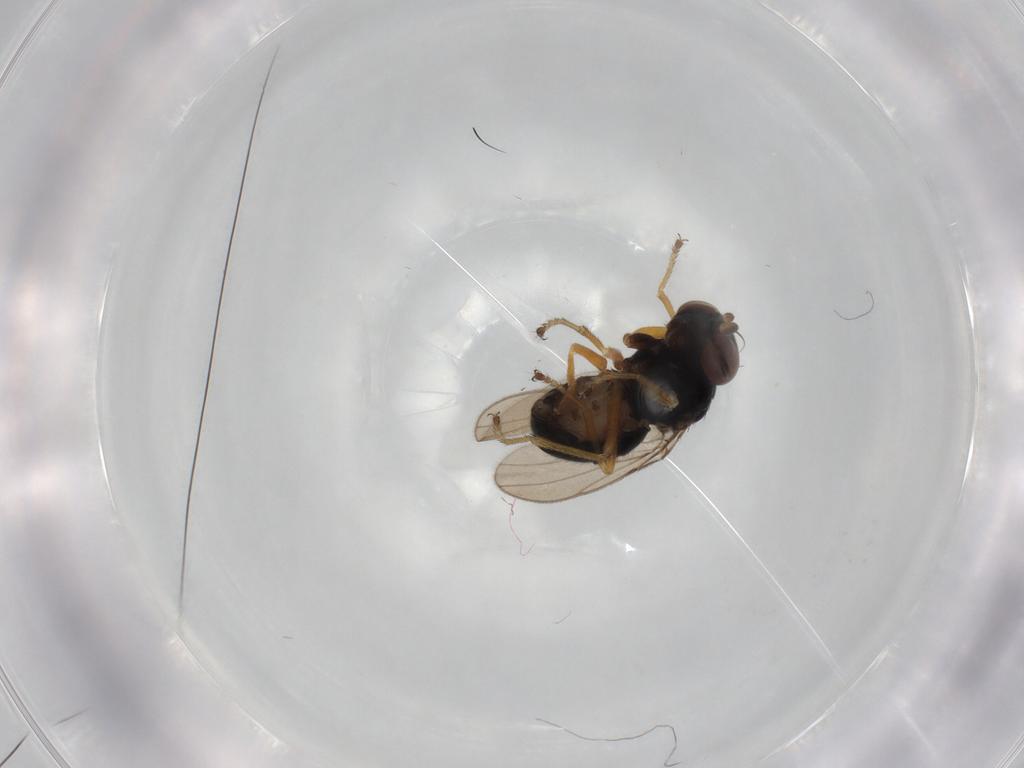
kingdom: Animalia
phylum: Arthropoda
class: Insecta
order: Diptera
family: Ephydridae
